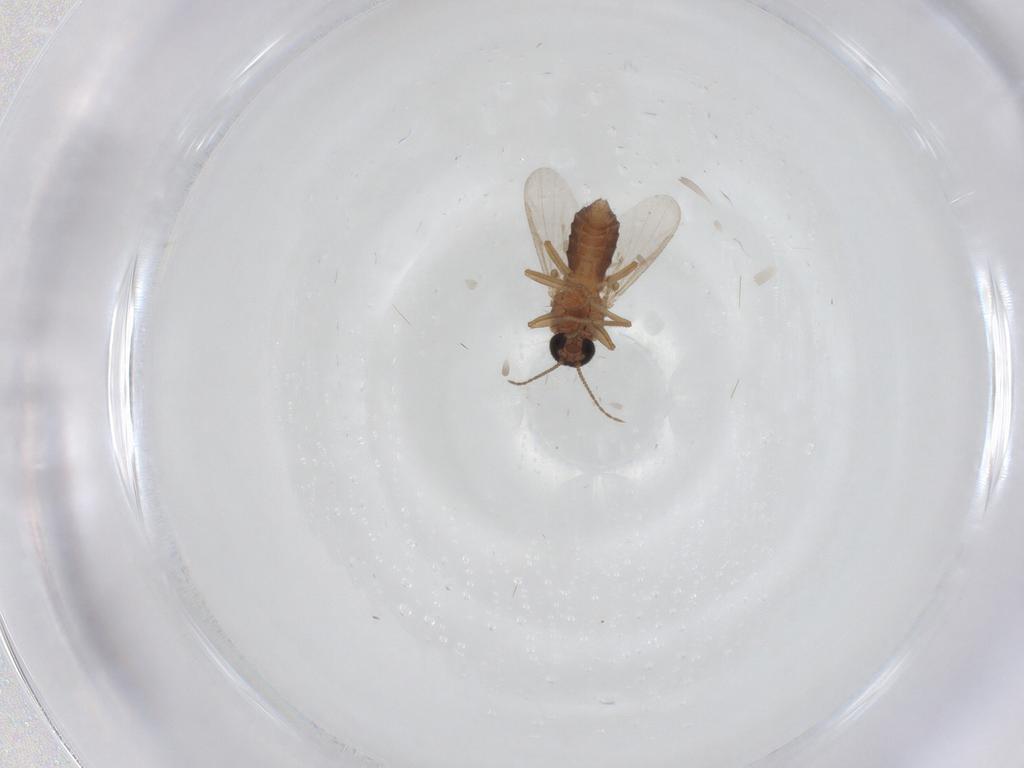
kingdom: Animalia
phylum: Arthropoda
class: Insecta
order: Diptera
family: Ceratopogonidae
